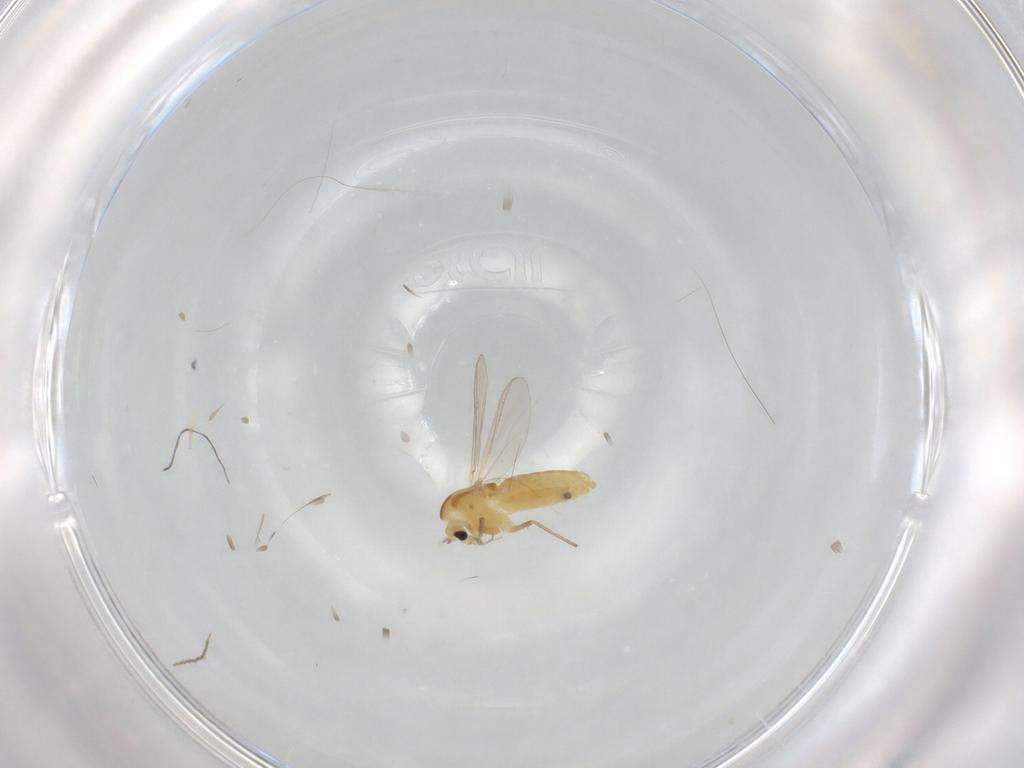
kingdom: Animalia
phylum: Arthropoda
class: Insecta
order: Diptera
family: Chironomidae
